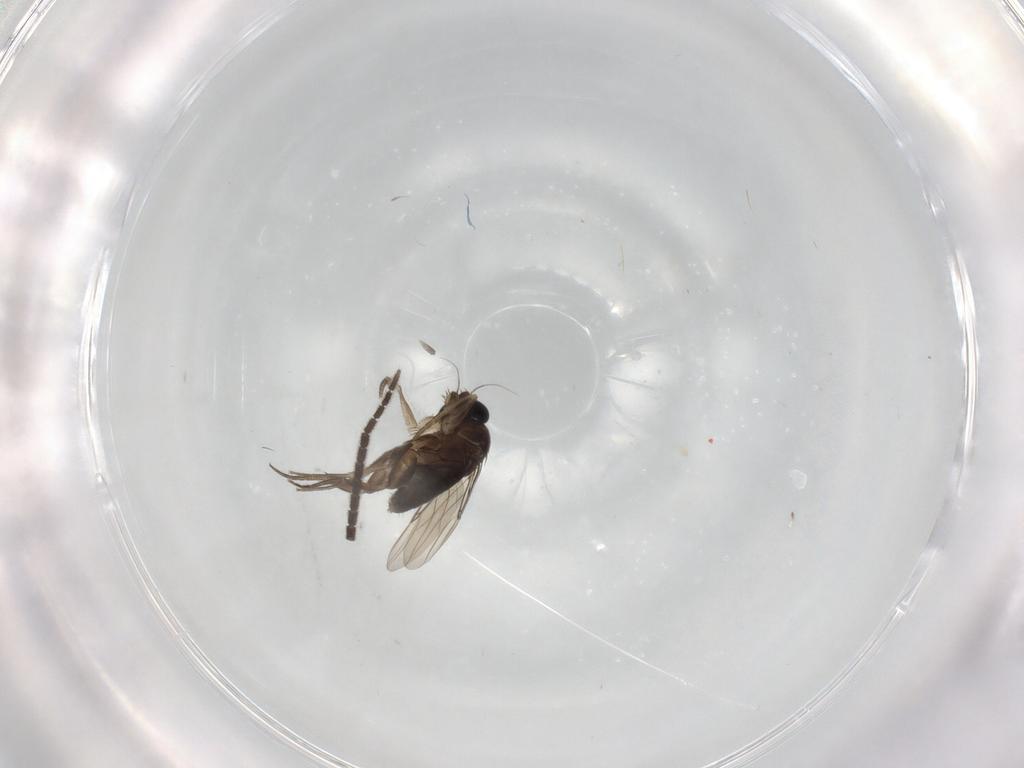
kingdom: Animalia
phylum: Arthropoda
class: Insecta
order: Diptera
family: Sciaridae
